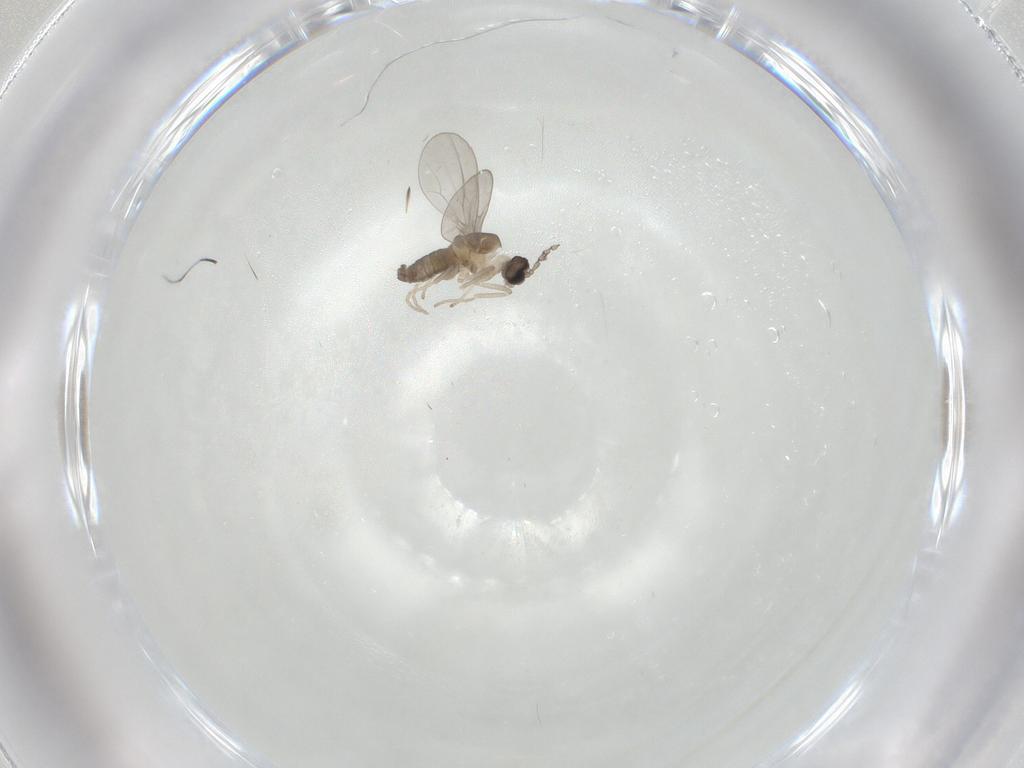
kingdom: Animalia
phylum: Arthropoda
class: Insecta
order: Diptera
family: Cecidomyiidae
